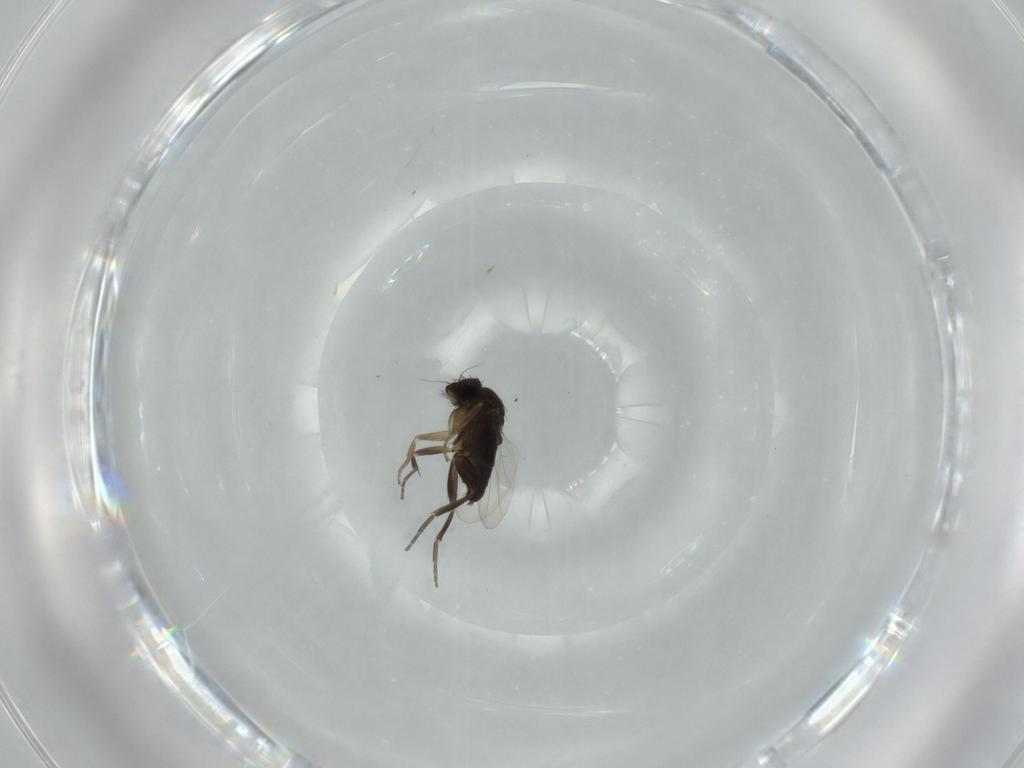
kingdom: Animalia
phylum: Arthropoda
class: Insecta
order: Diptera
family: Phoridae
